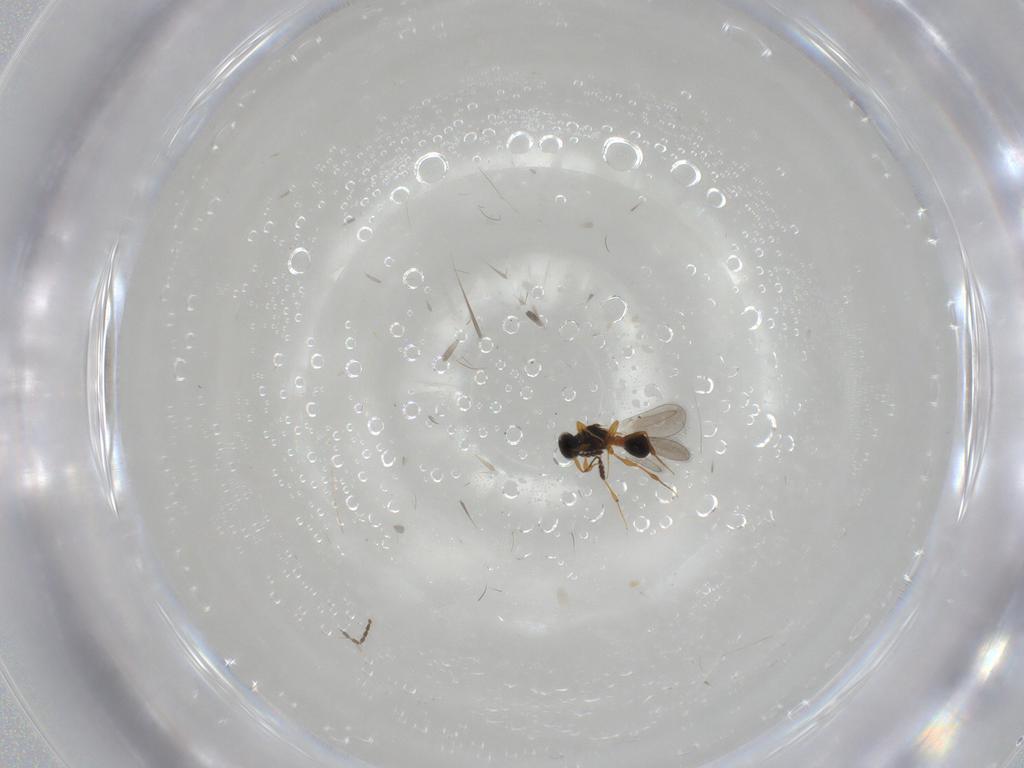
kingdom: Animalia
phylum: Arthropoda
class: Insecta
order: Hymenoptera
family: Platygastridae
